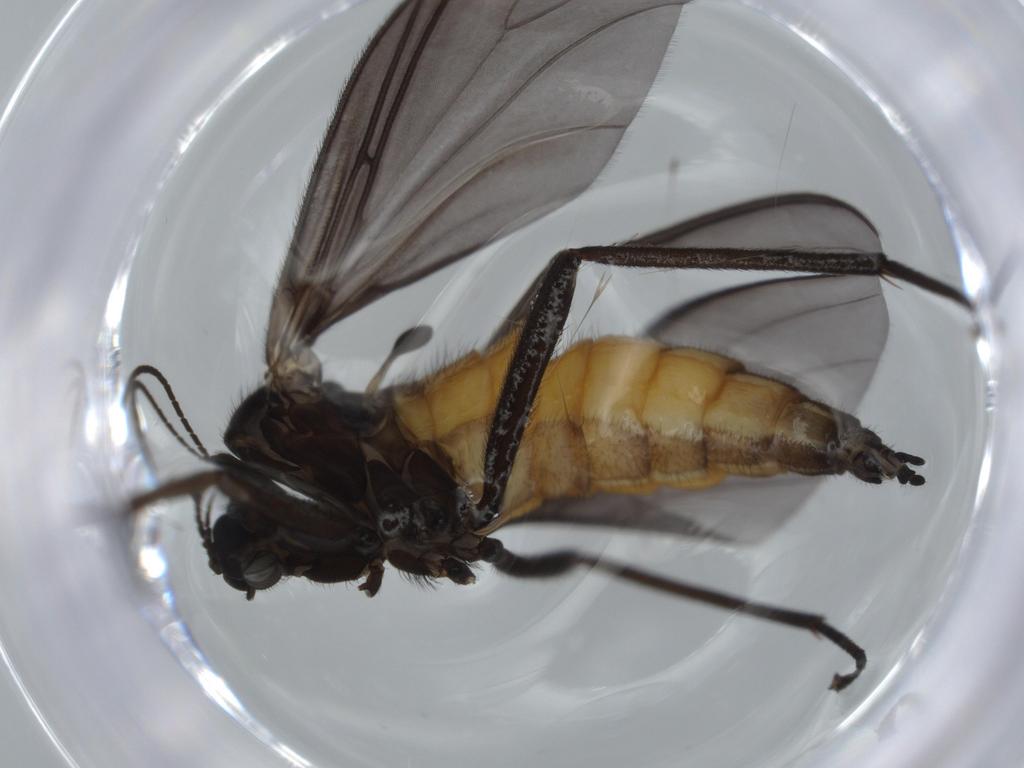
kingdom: Animalia
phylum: Arthropoda
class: Insecta
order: Diptera
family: Sciaridae
